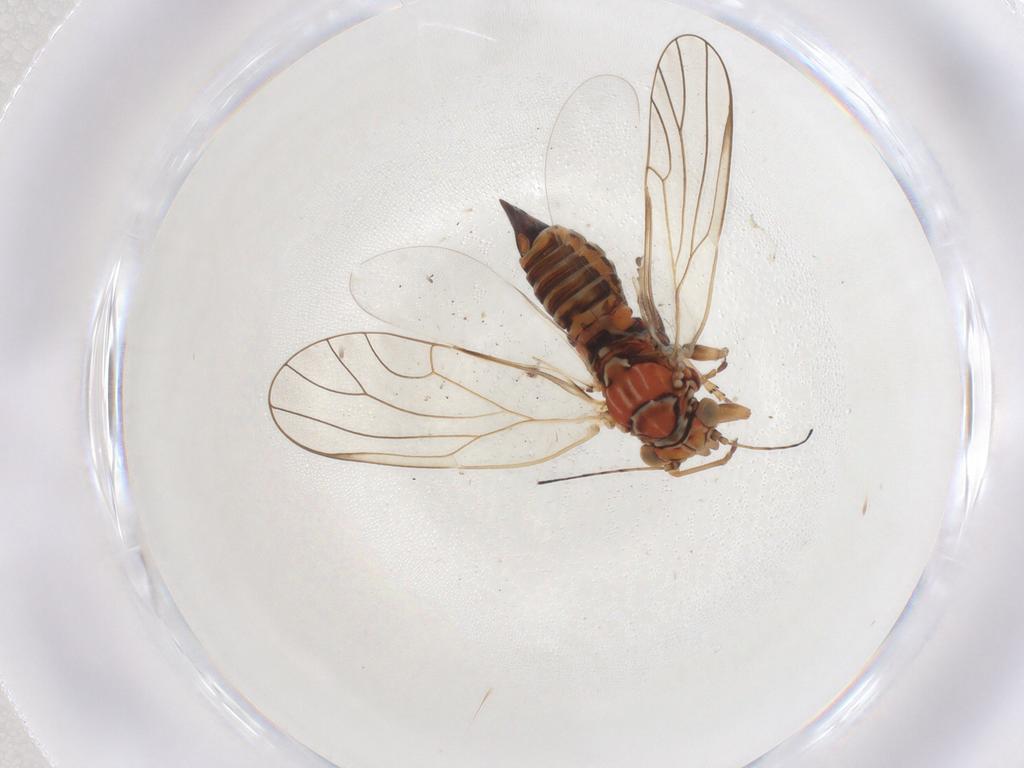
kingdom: Animalia
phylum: Arthropoda
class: Insecta
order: Hemiptera
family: Psyllidae
